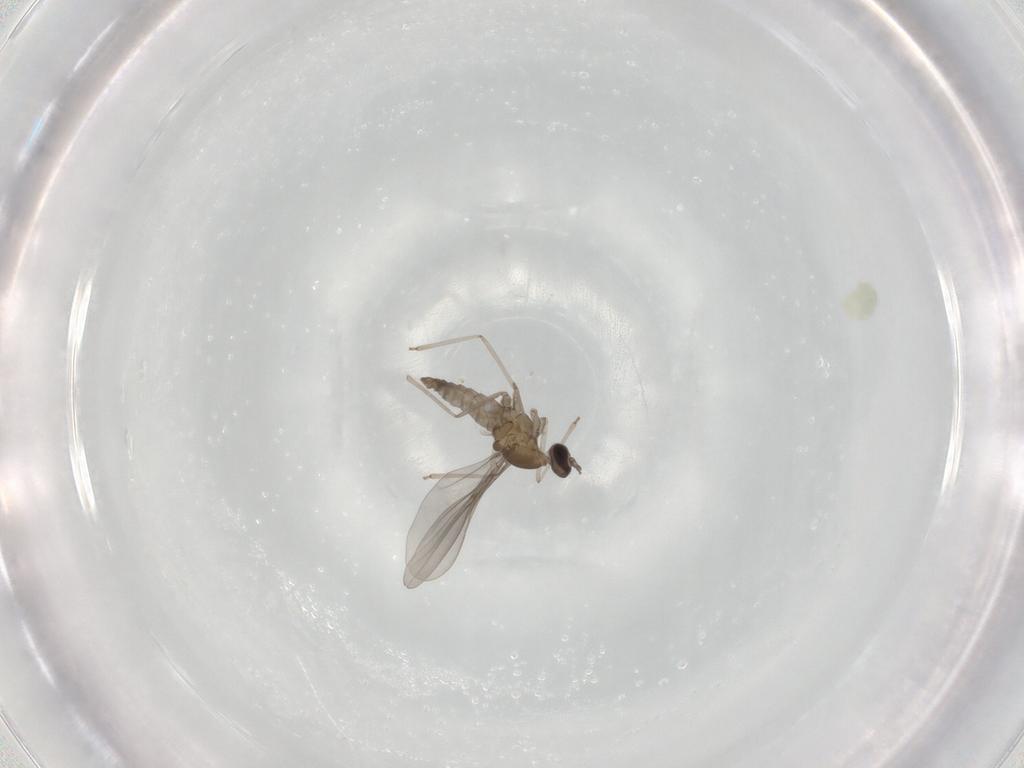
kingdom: Animalia
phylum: Arthropoda
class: Insecta
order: Diptera
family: Cecidomyiidae
